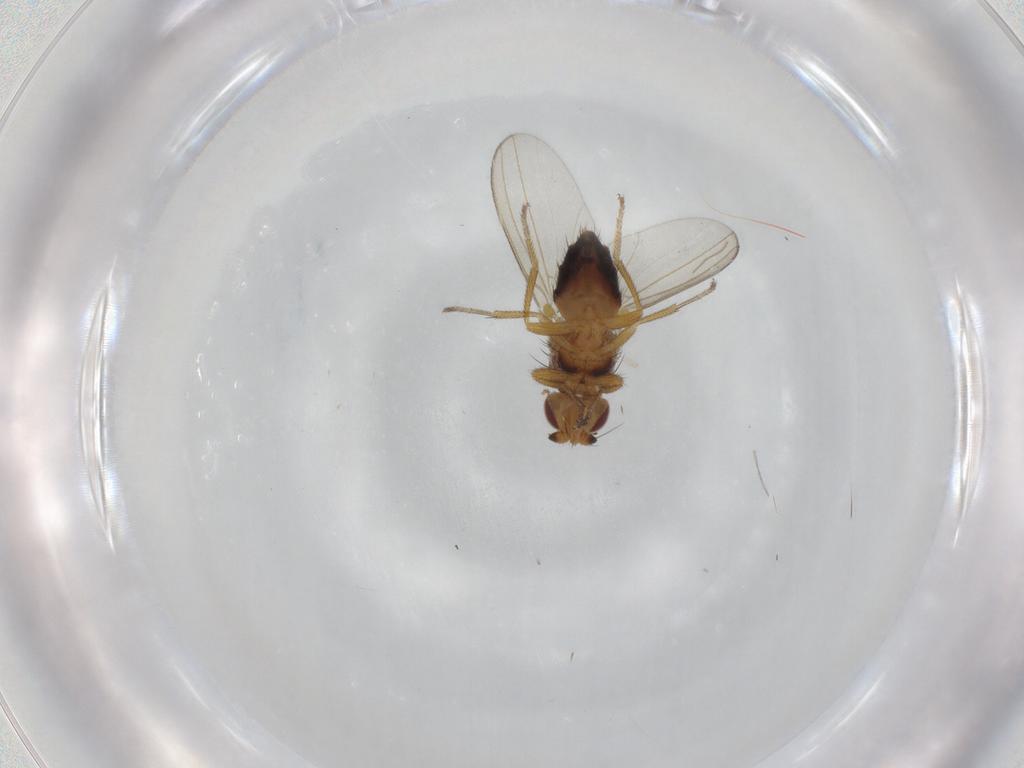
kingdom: Animalia
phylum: Arthropoda
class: Insecta
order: Diptera
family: Milichiidae
